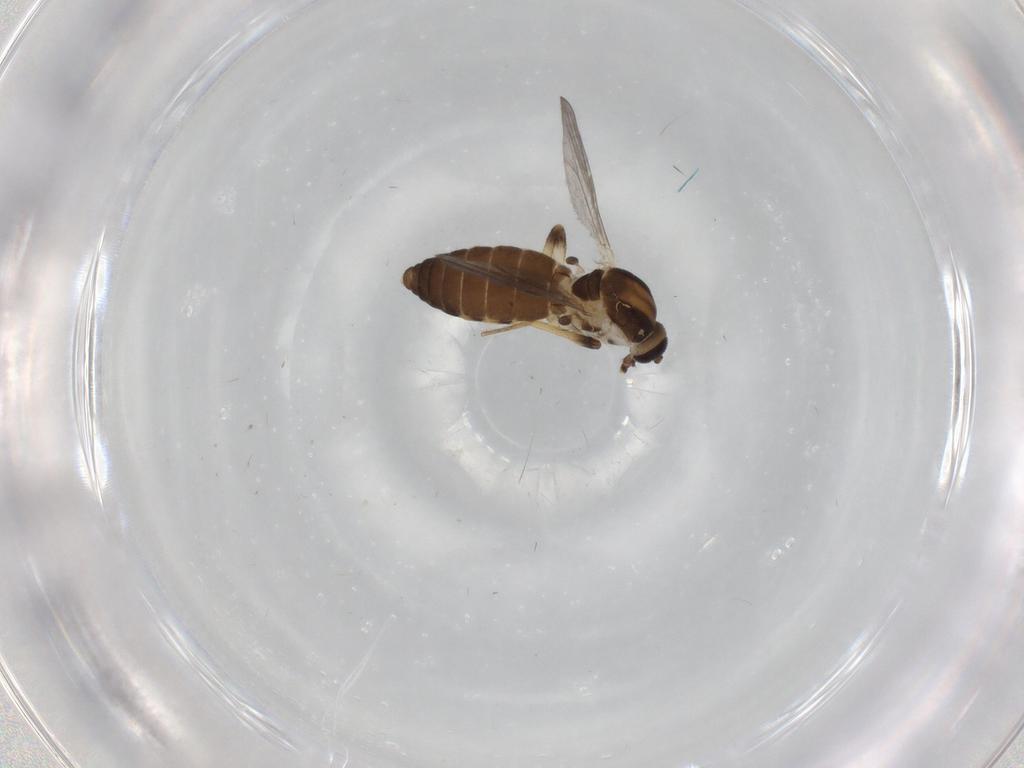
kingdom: Animalia
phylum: Arthropoda
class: Insecta
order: Diptera
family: Ceratopogonidae
